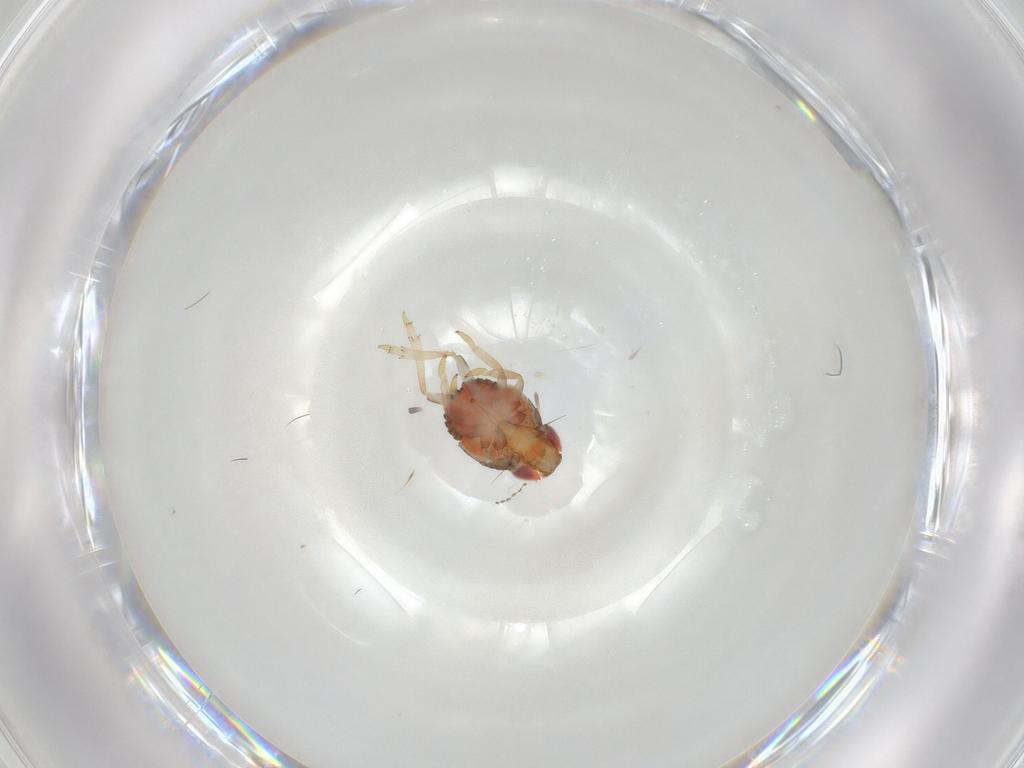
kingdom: Animalia
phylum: Arthropoda
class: Insecta
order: Hemiptera
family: Issidae
